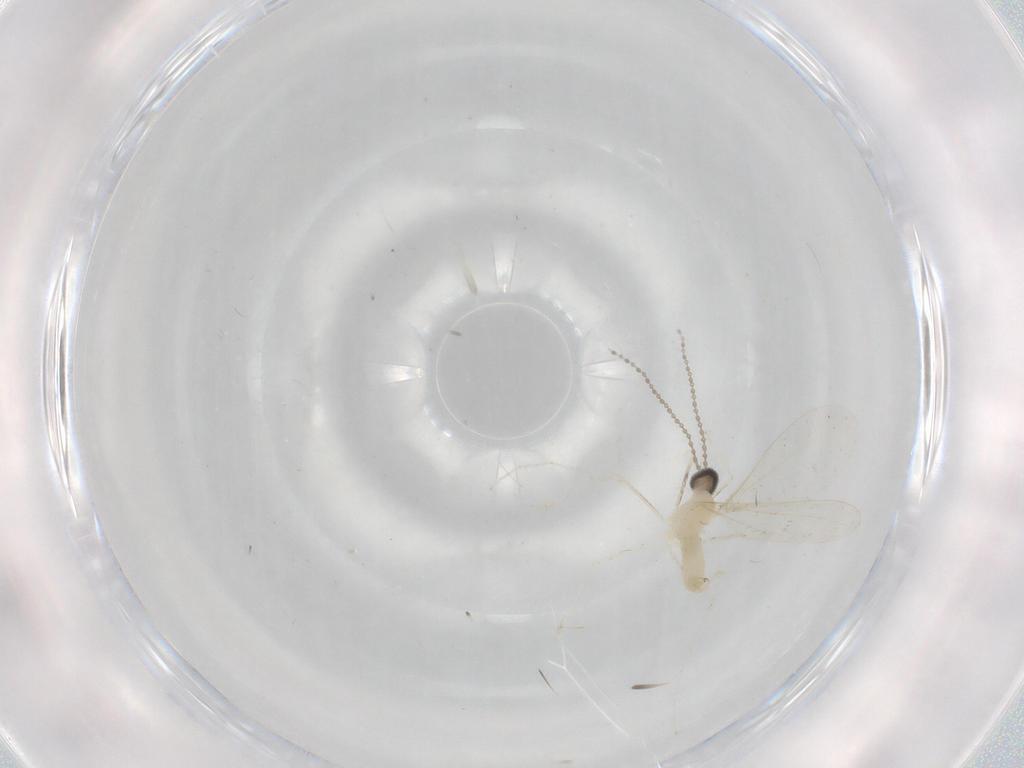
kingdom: Animalia
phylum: Arthropoda
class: Insecta
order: Diptera
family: Cecidomyiidae
